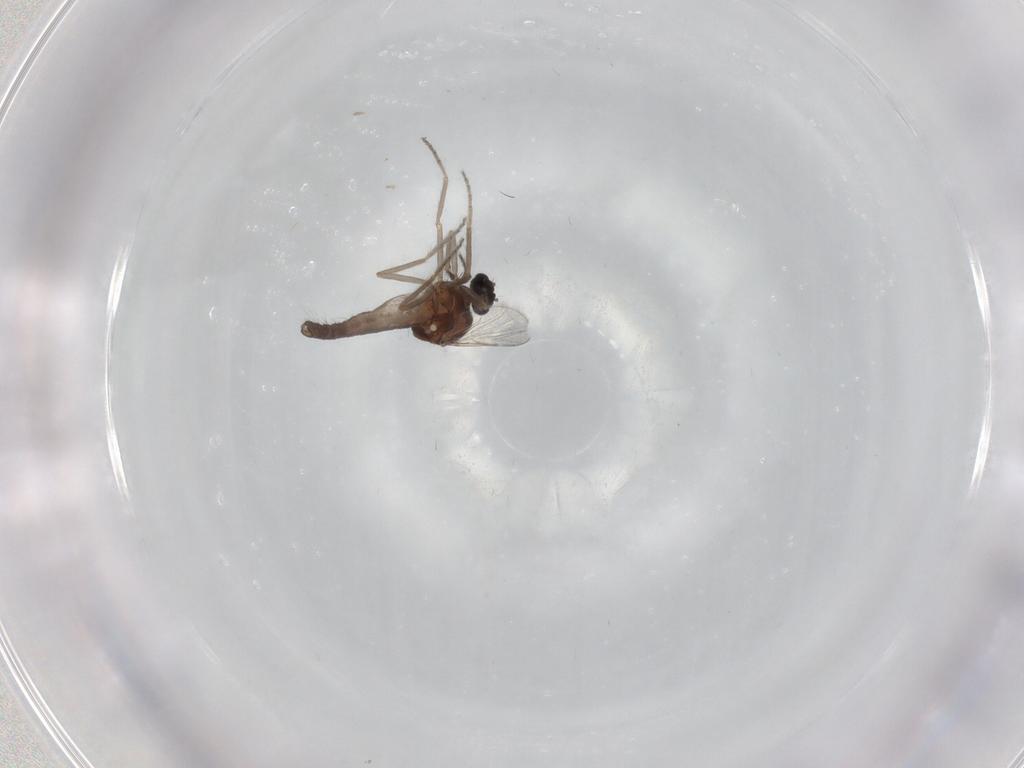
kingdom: Animalia
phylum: Arthropoda
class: Insecta
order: Diptera
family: Ceratopogonidae
